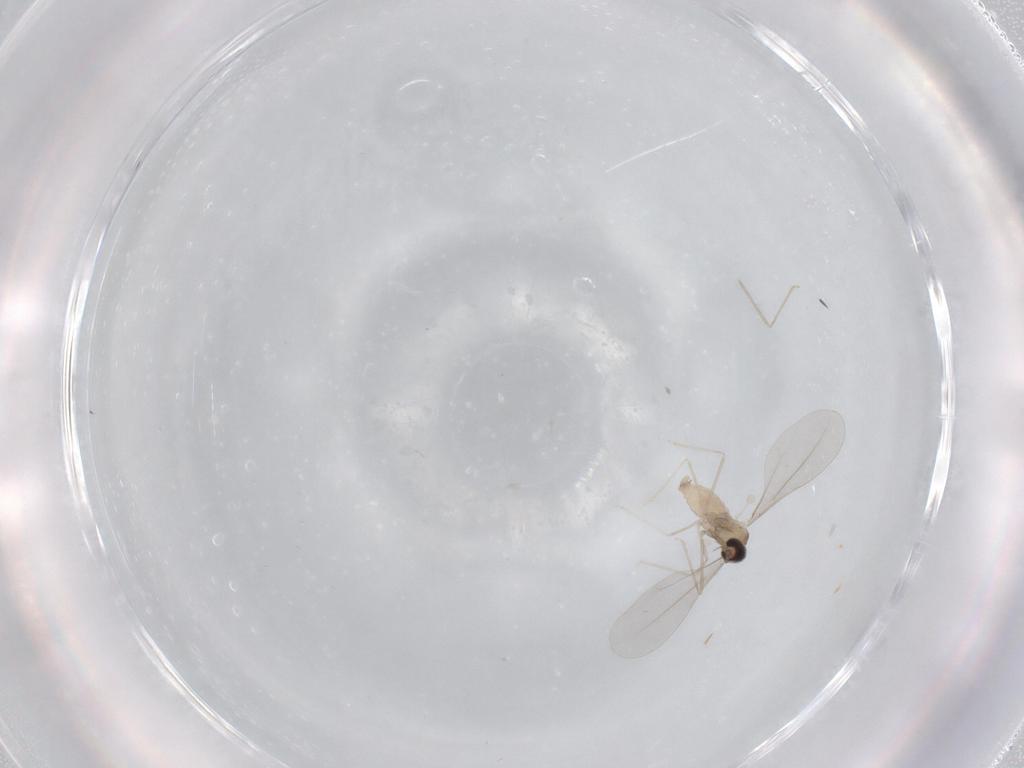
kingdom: Animalia
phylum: Arthropoda
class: Insecta
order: Diptera
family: Cecidomyiidae
